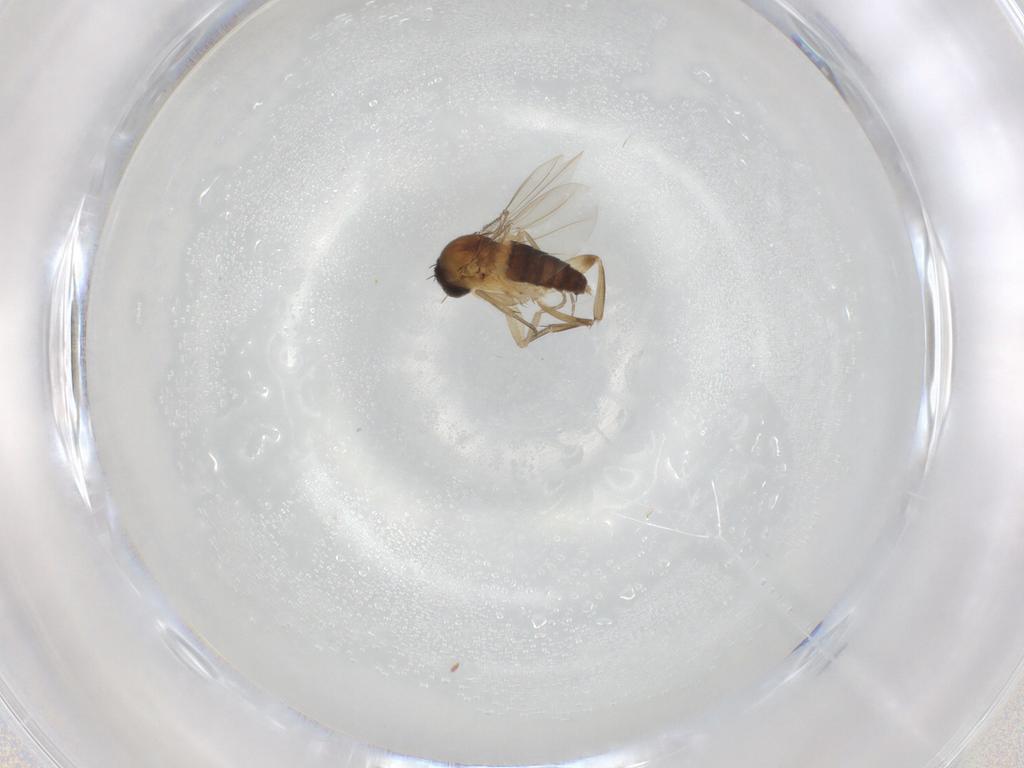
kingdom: Animalia
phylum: Arthropoda
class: Insecta
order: Diptera
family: Phoridae
